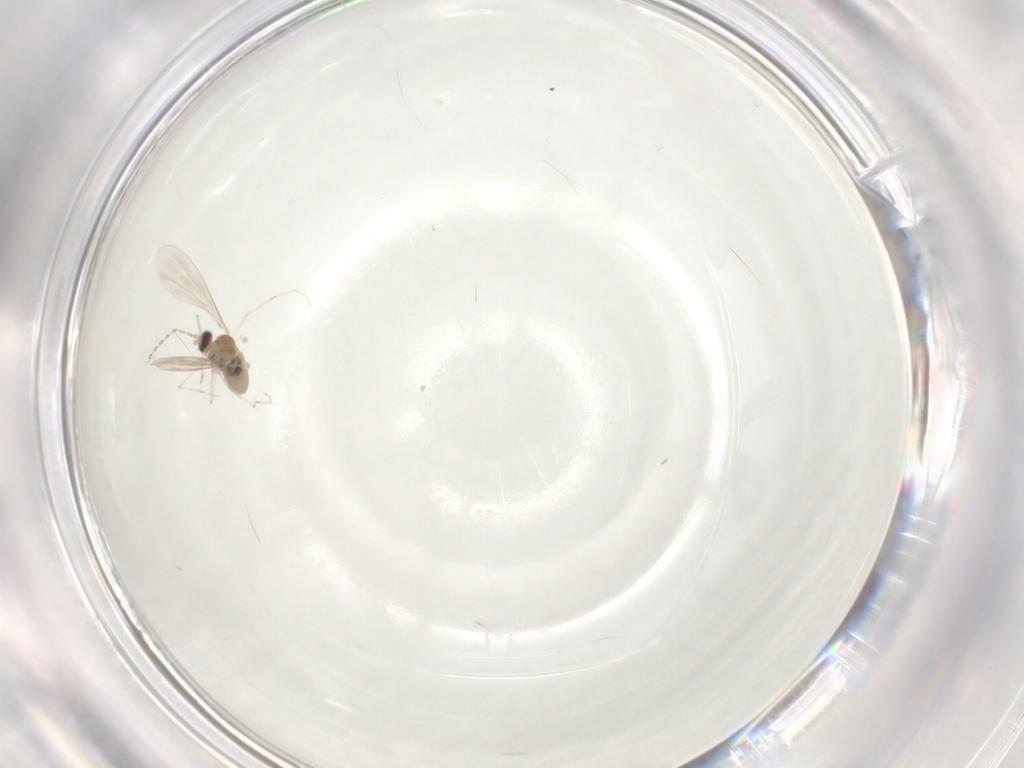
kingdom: Animalia
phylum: Arthropoda
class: Insecta
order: Diptera
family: Cecidomyiidae
